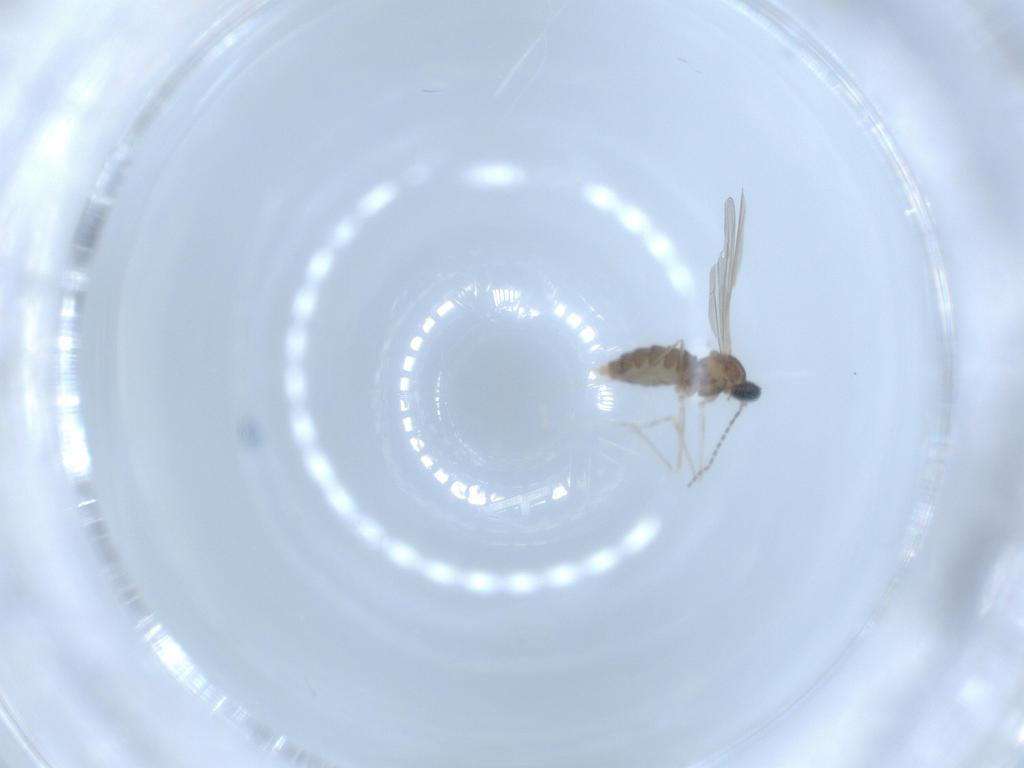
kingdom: Animalia
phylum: Arthropoda
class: Insecta
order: Diptera
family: Cecidomyiidae
